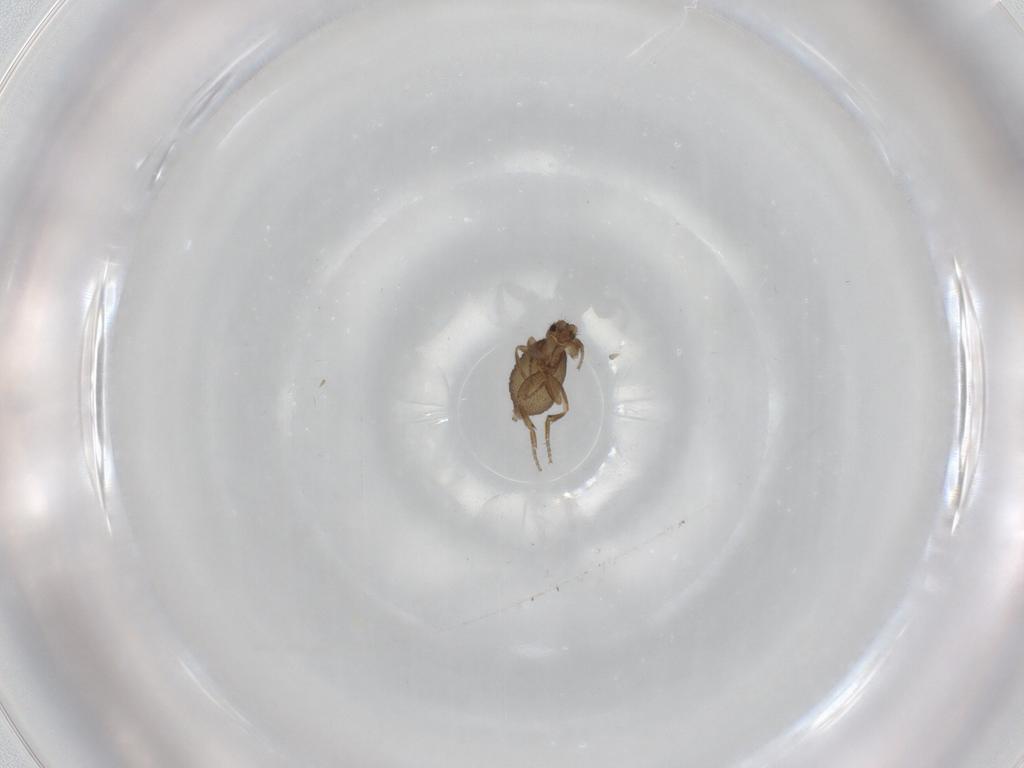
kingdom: Animalia
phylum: Arthropoda
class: Insecta
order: Diptera
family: Phoridae
